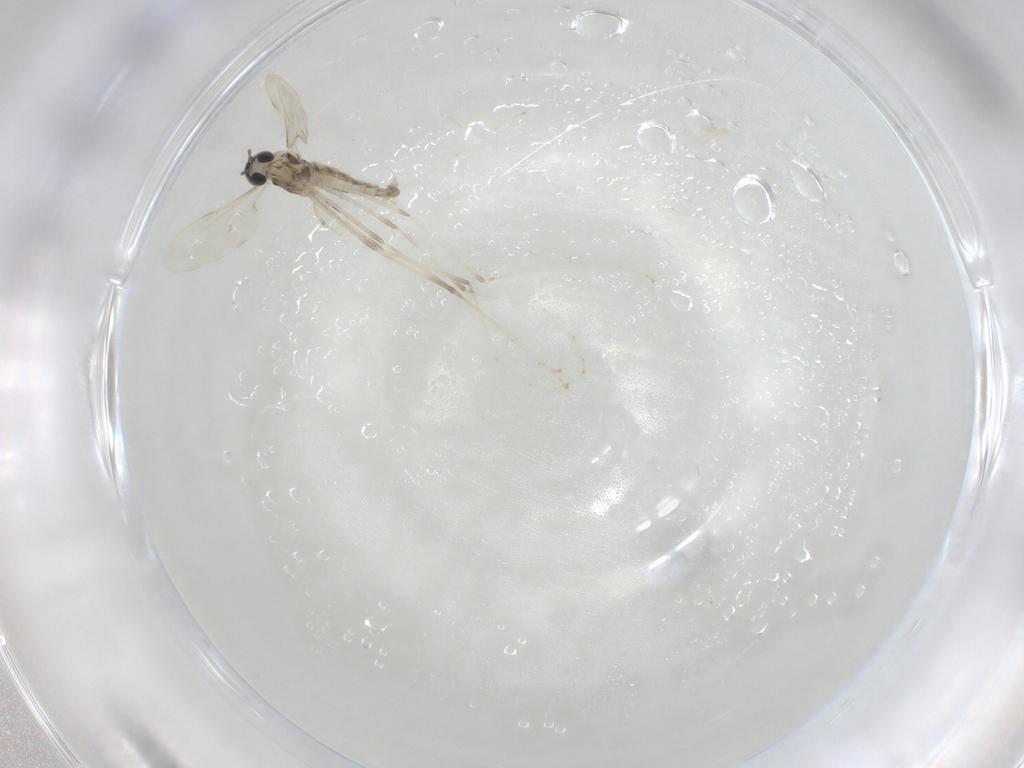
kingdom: Animalia
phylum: Arthropoda
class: Insecta
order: Diptera
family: Cecidomyiidae
